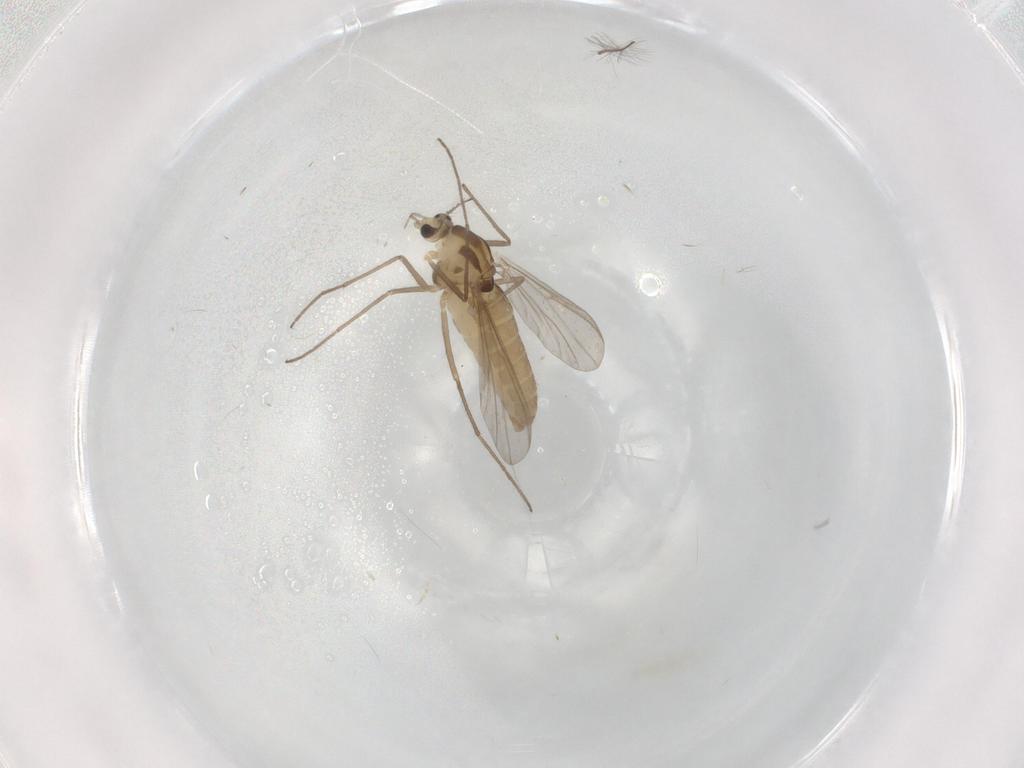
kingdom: Animalia
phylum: Arthropoda
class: Insecta
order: Diptera
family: Chironomidae
